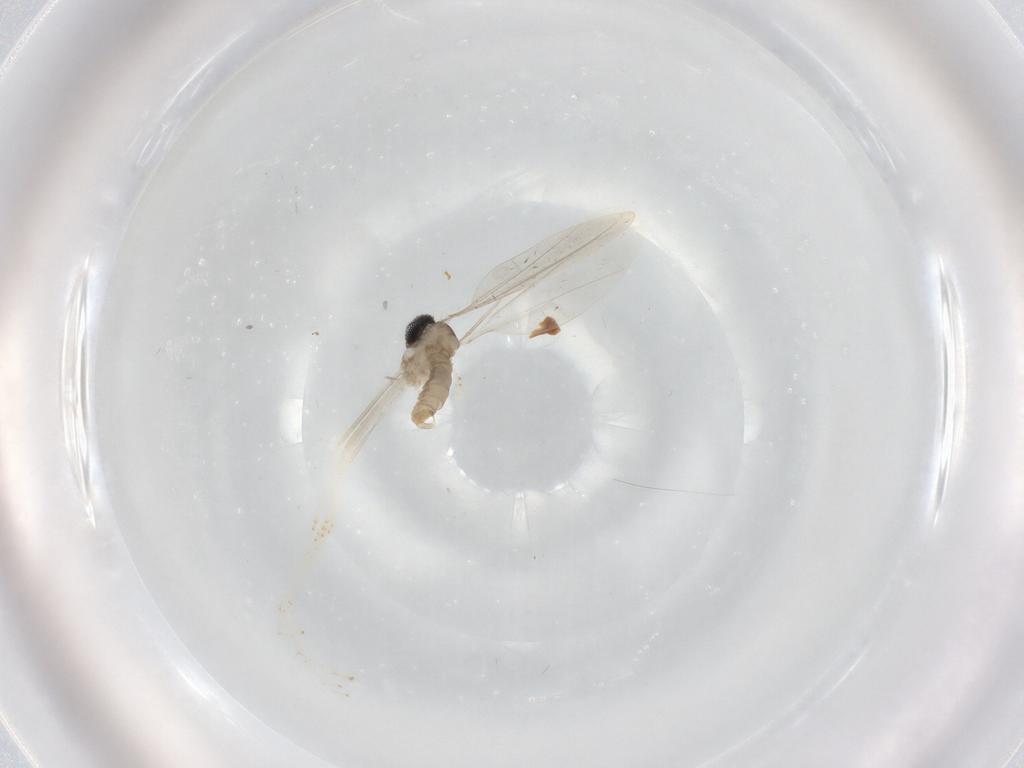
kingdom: Animalia
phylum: Arthropoda
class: Insecta
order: Diptera
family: Cecidomyiidae
